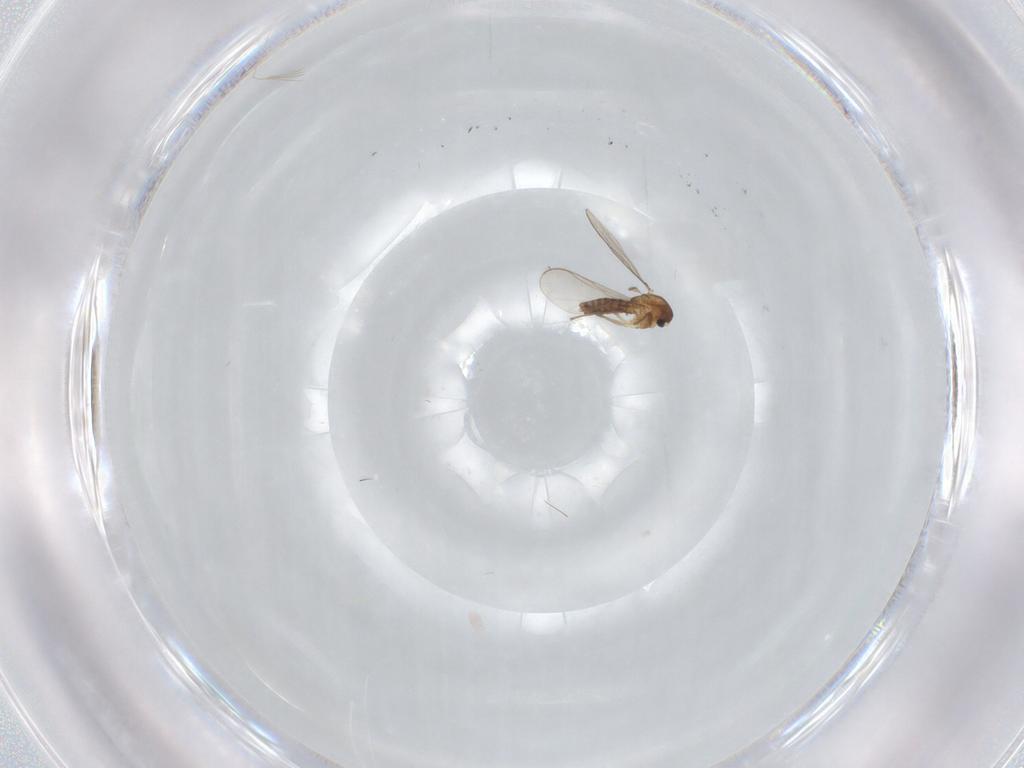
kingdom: Animalia
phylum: Arthropoda
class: Insecta
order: Diptera
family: Chironomidae
